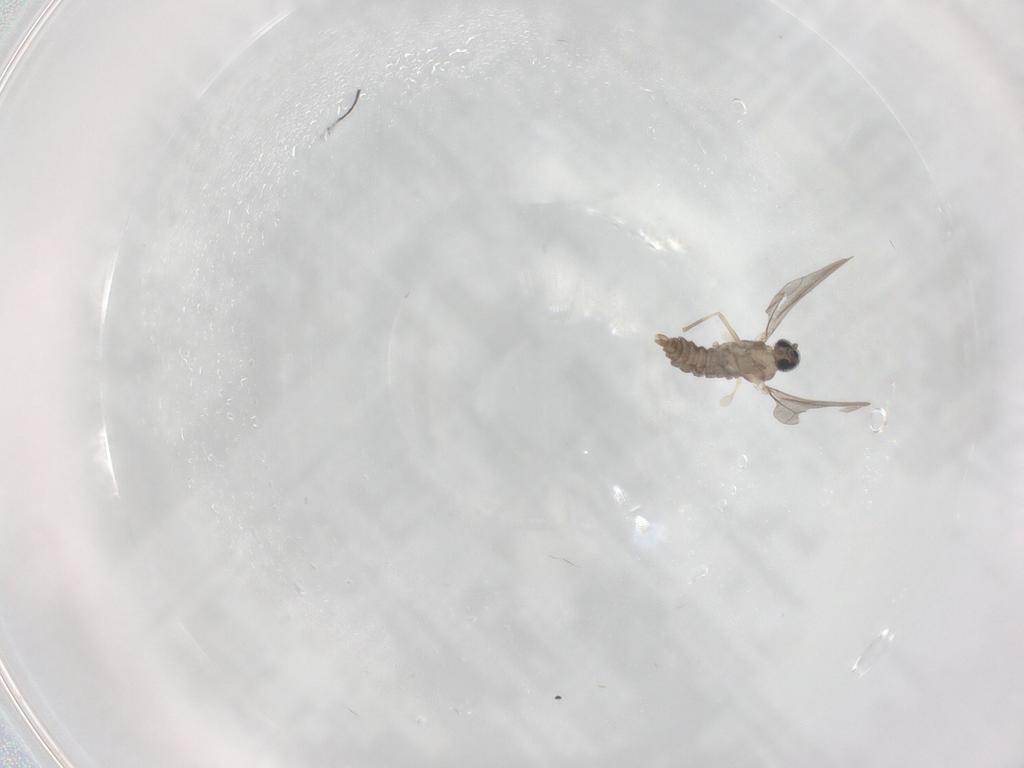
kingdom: Animalia
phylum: Arthropoda
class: Insecta
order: Diptera
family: Cecidomyiidae
